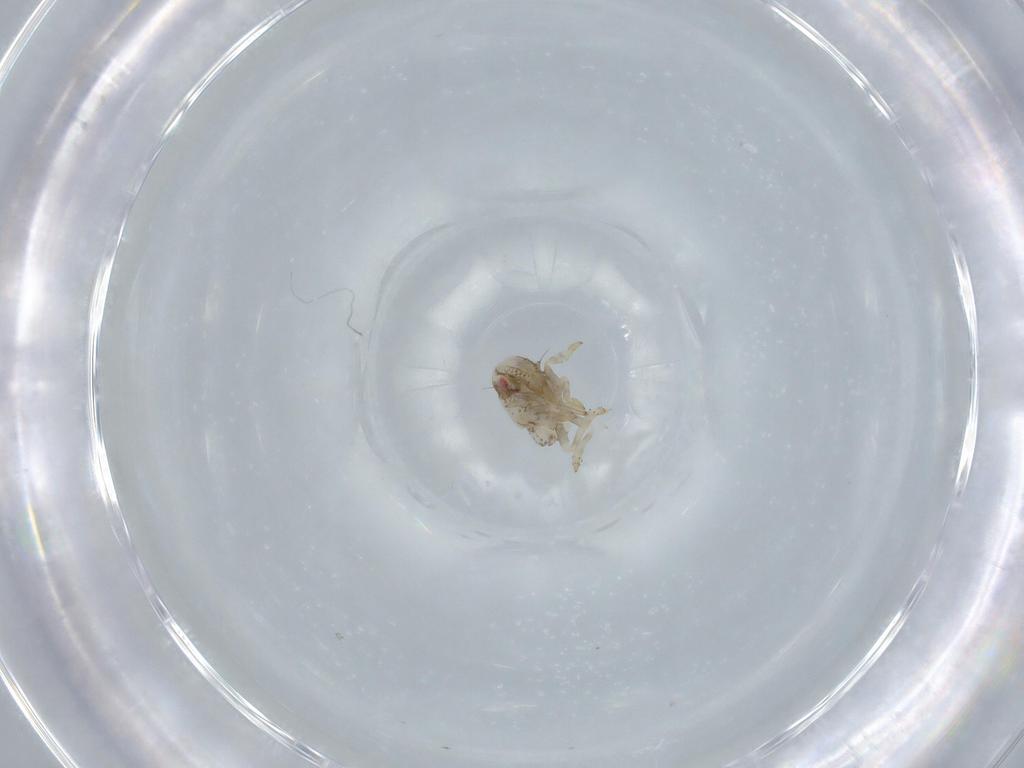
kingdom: Animalia
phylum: Arthropoda
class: Insecta
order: Hemiptera
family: Acanaloniidae
